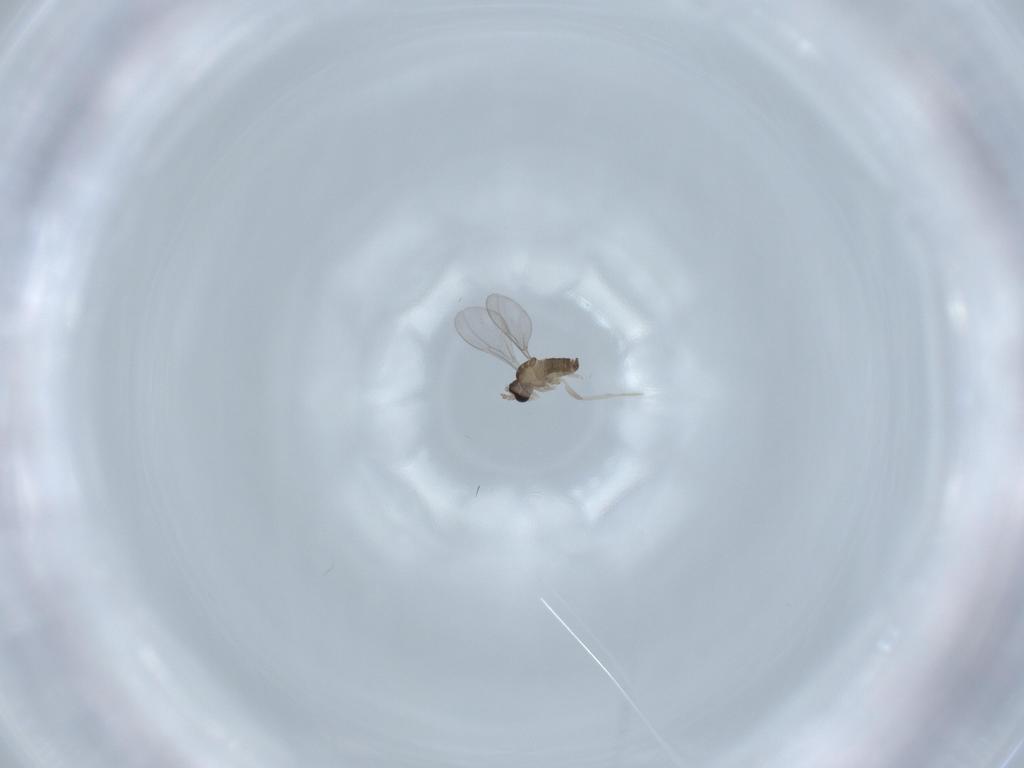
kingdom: Animalia
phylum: Arthropoda
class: Insecta
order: Diptera
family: Cecidomyiidae
